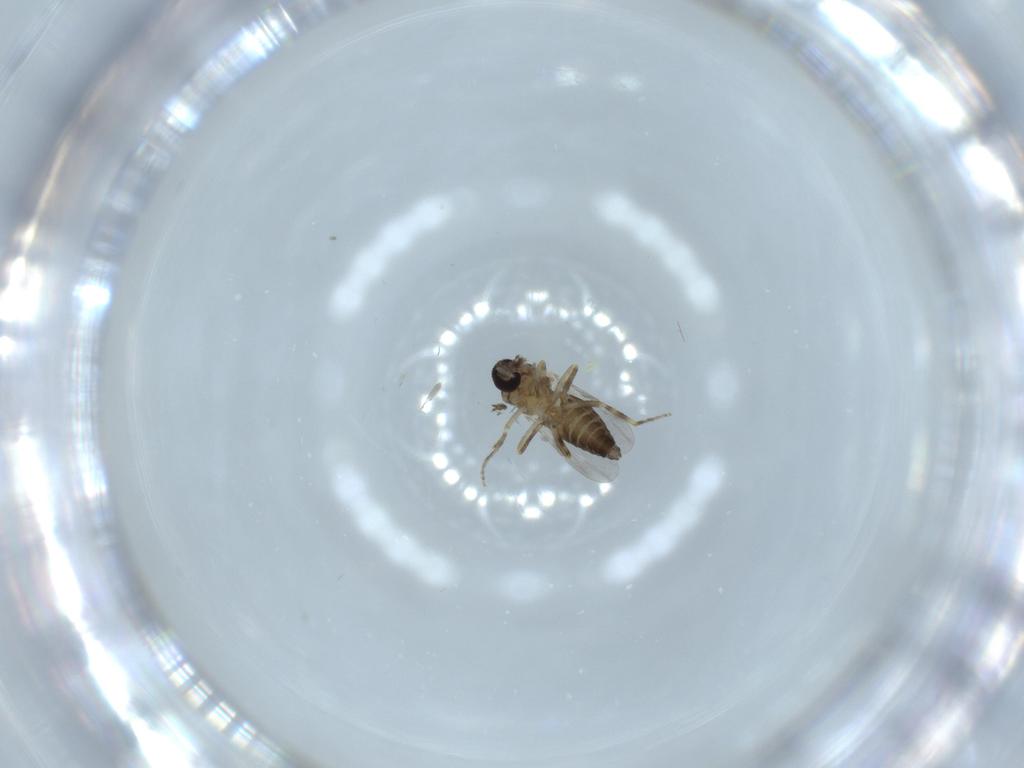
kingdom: Animalia
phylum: Arthropoda
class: Insecta
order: Diptera
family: Ceratopogonidae
